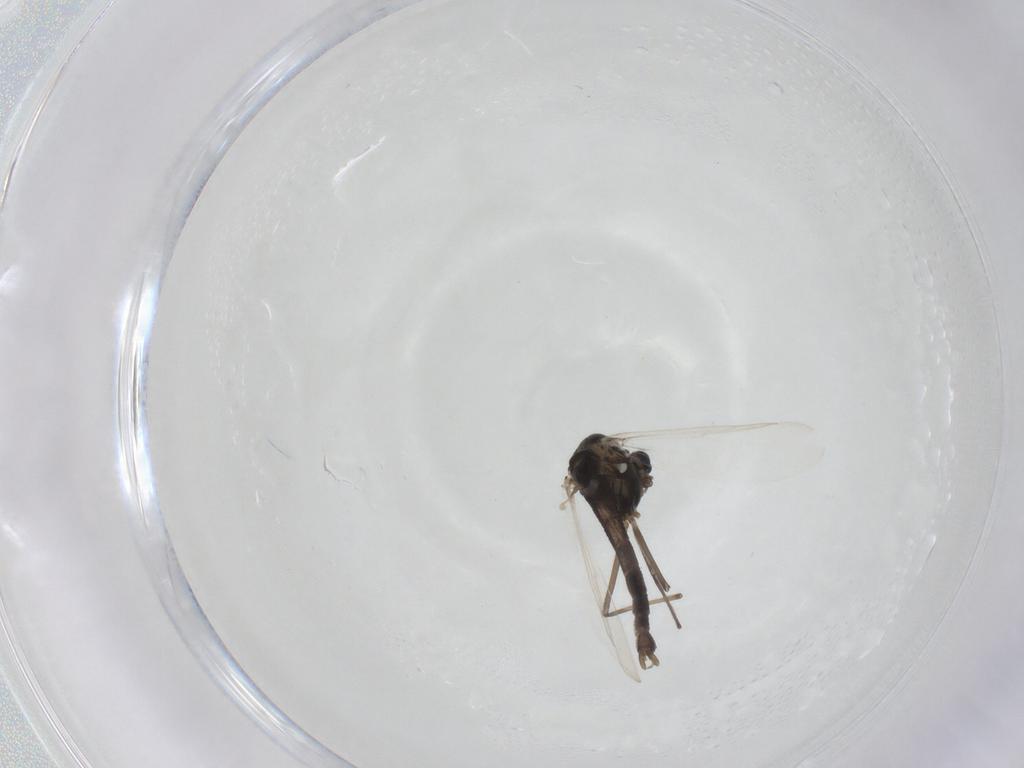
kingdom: Animalia
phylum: Arthropoda
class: Insecta
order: Diptera
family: Chironomidae
